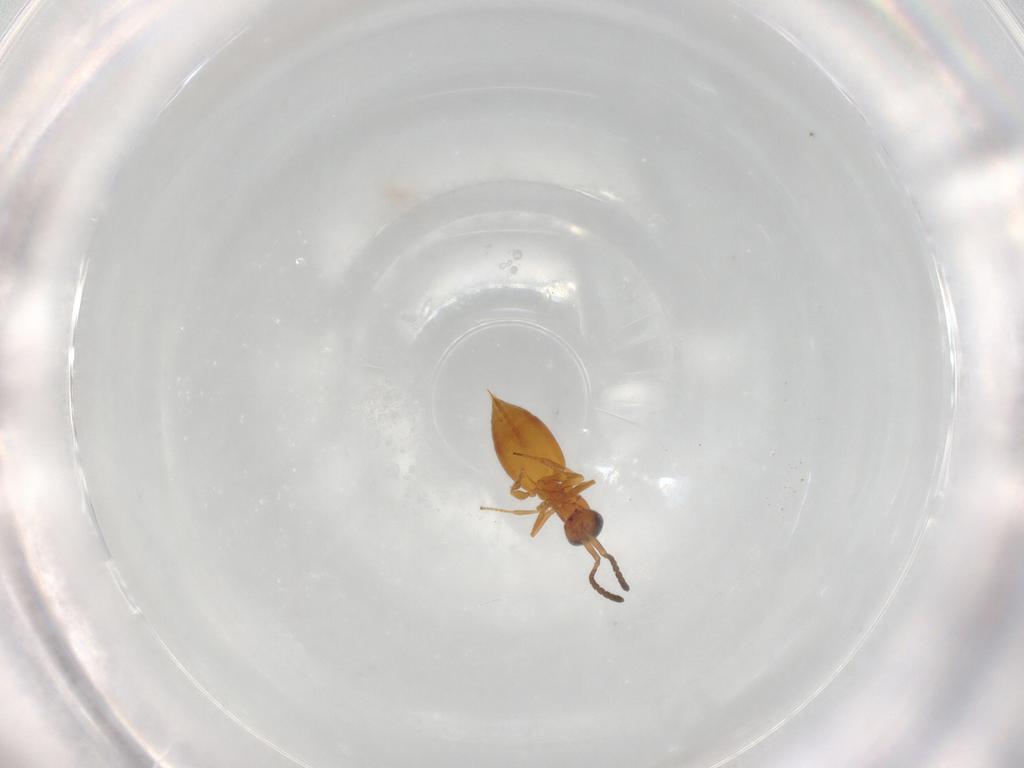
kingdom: Animalia
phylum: Arthropoda
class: Insecta
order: Hymenoptera
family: Megaspilidae
